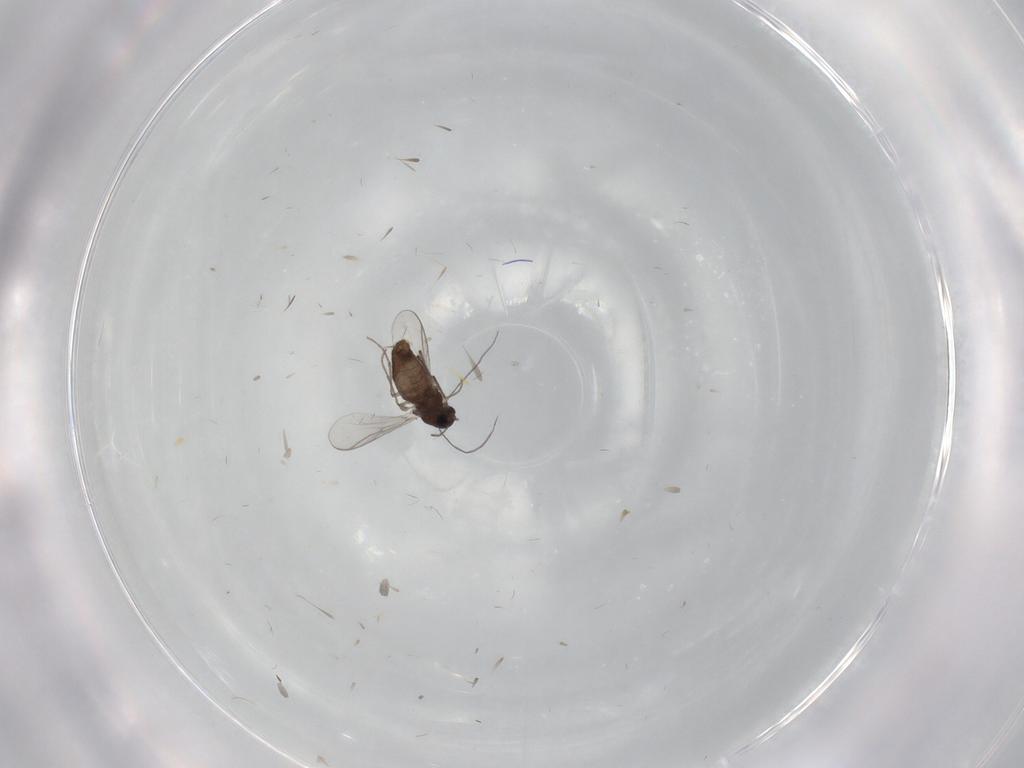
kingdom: Animalia
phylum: Arthropoda
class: Insecta
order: Diptera
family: Chironomidae
